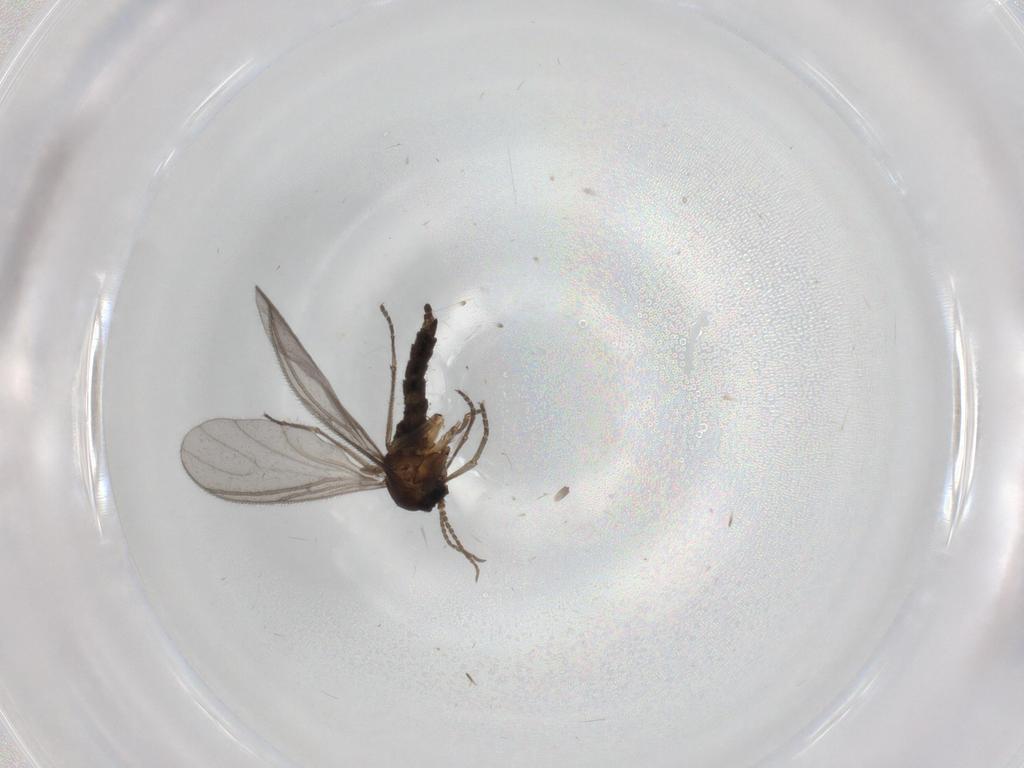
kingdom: Animalia
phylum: Arthropoda
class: Insecta
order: Diptera
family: Sciaridae
